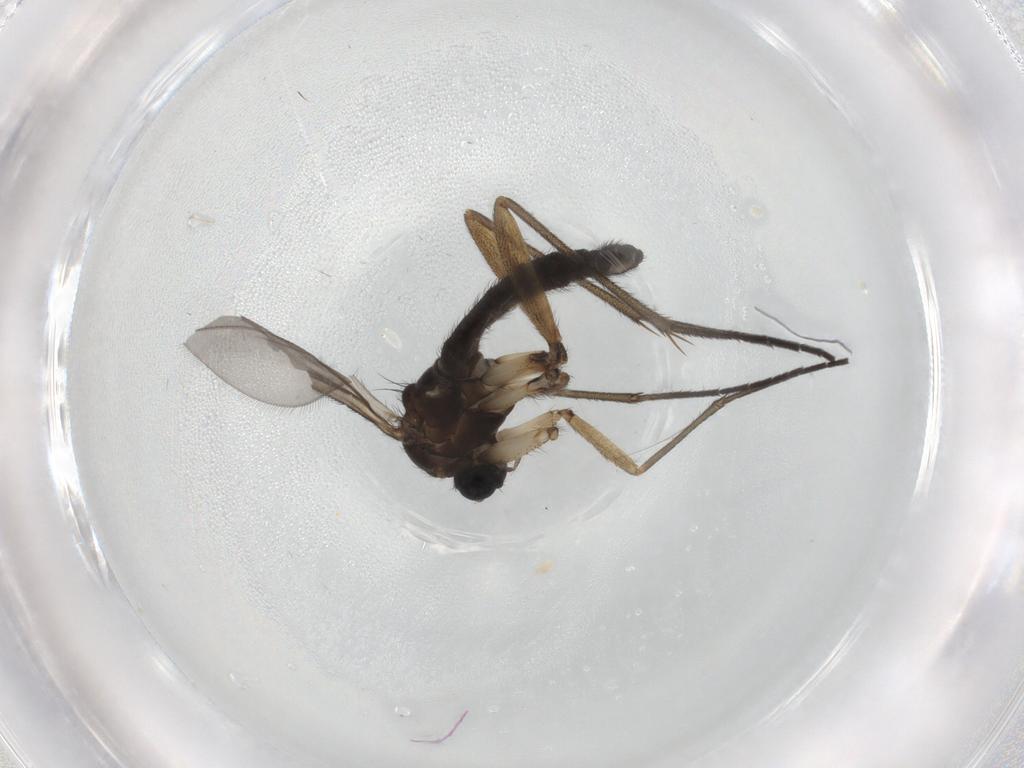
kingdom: Animalia
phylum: Arthropoda
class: Insecta
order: Diptera
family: Sciaridae
